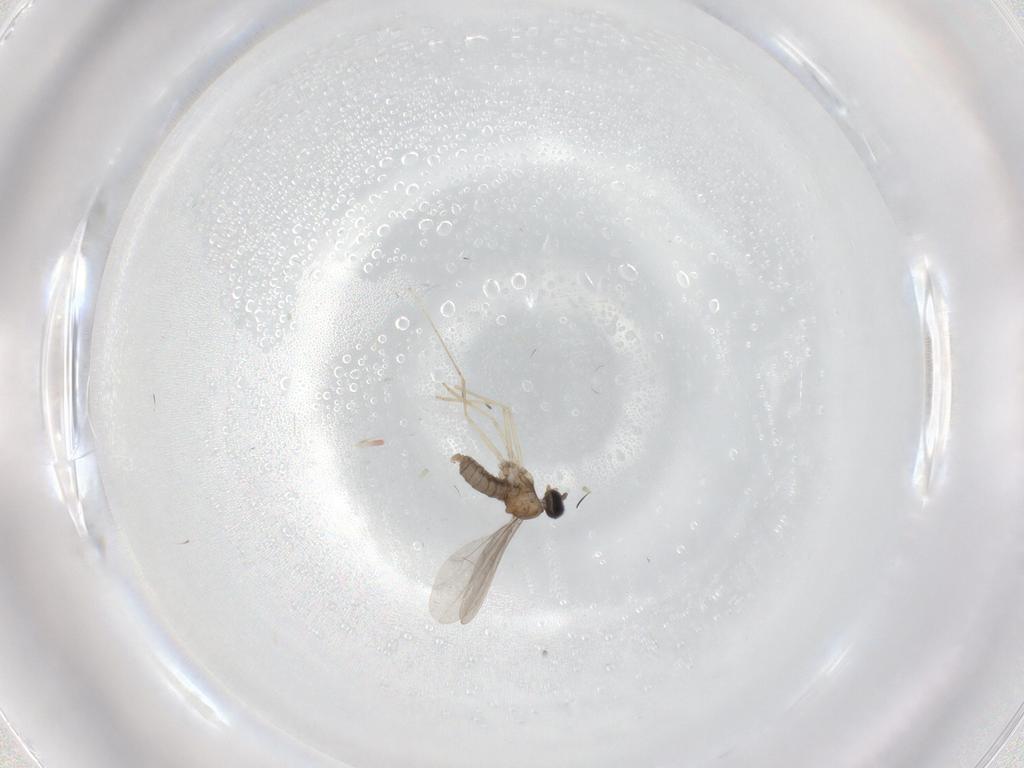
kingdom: Animalia
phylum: Arthropoda
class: Insecta
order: Diptera
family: Cecidomyiidae
